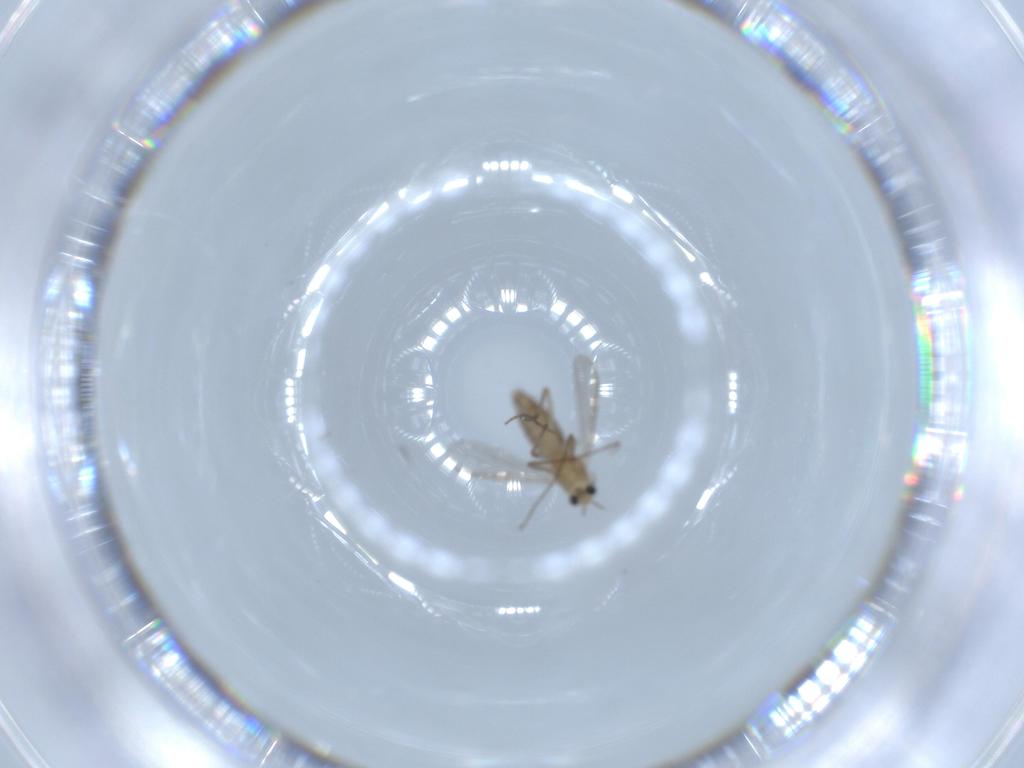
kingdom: Animalia
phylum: Arthropoda
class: Insecta
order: Diptera
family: Chironomidae
